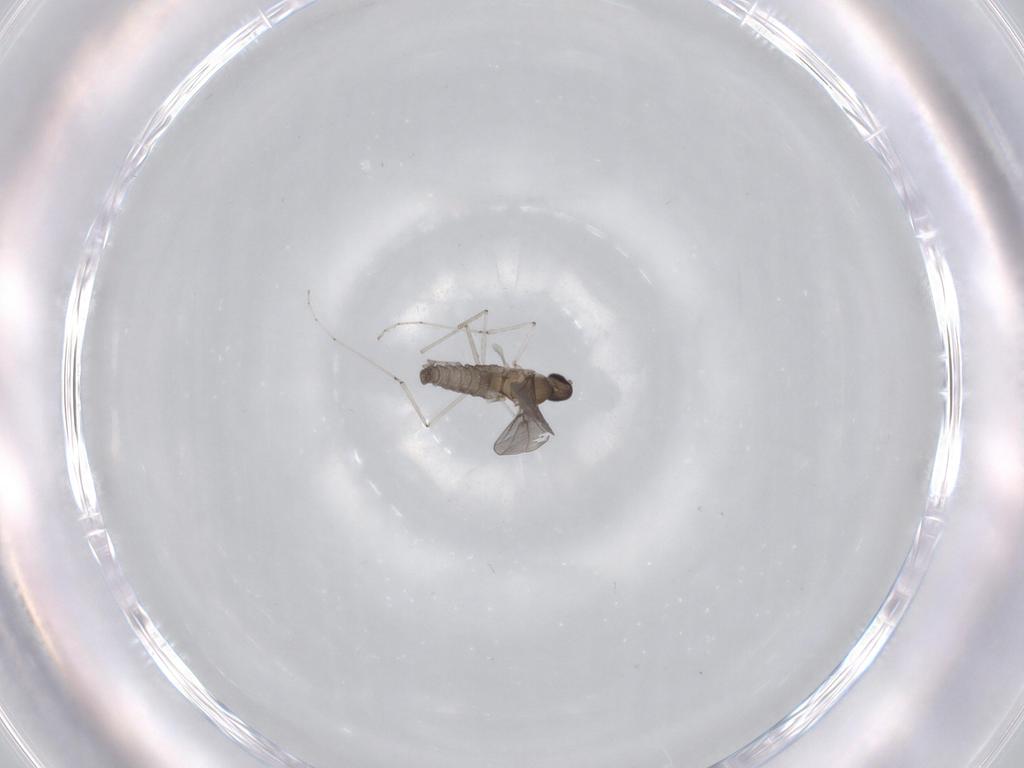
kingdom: Animalia
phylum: Arthropoda
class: Insecta
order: Diptera
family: Cecidomyiidae
